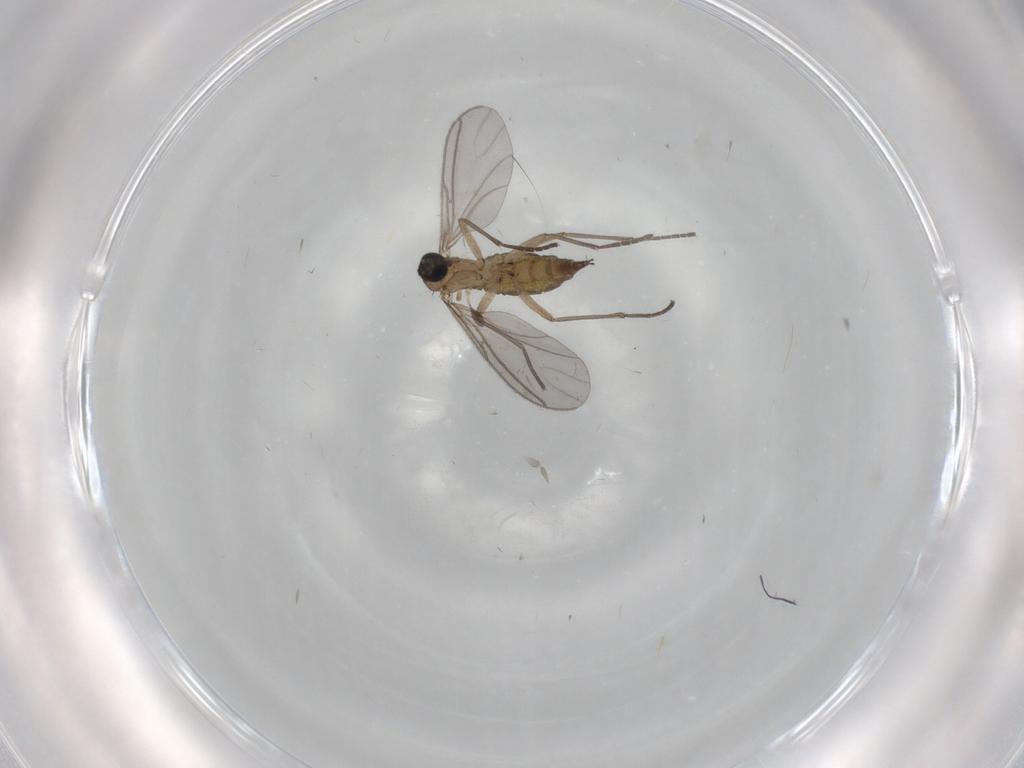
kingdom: Animalia
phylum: Arthropoda
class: Insecta
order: Diptera
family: Sciaridae
